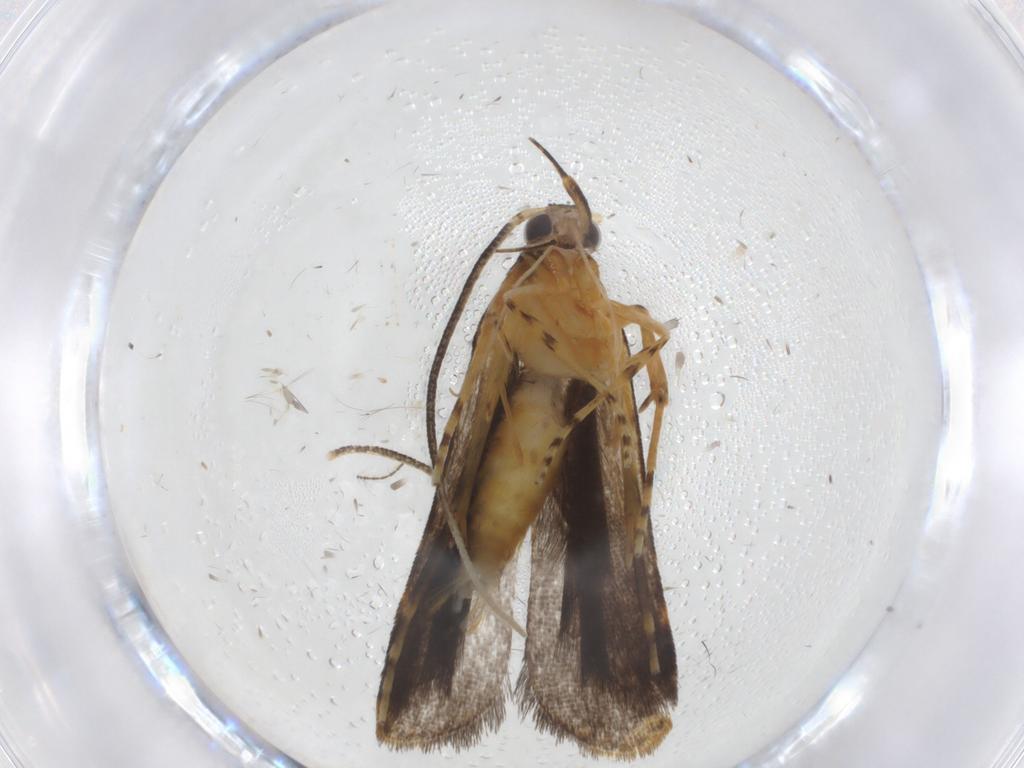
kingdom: Animalia
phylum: Arthropoda
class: Insecta
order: Lepidoptera
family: Cosmopterigidae
